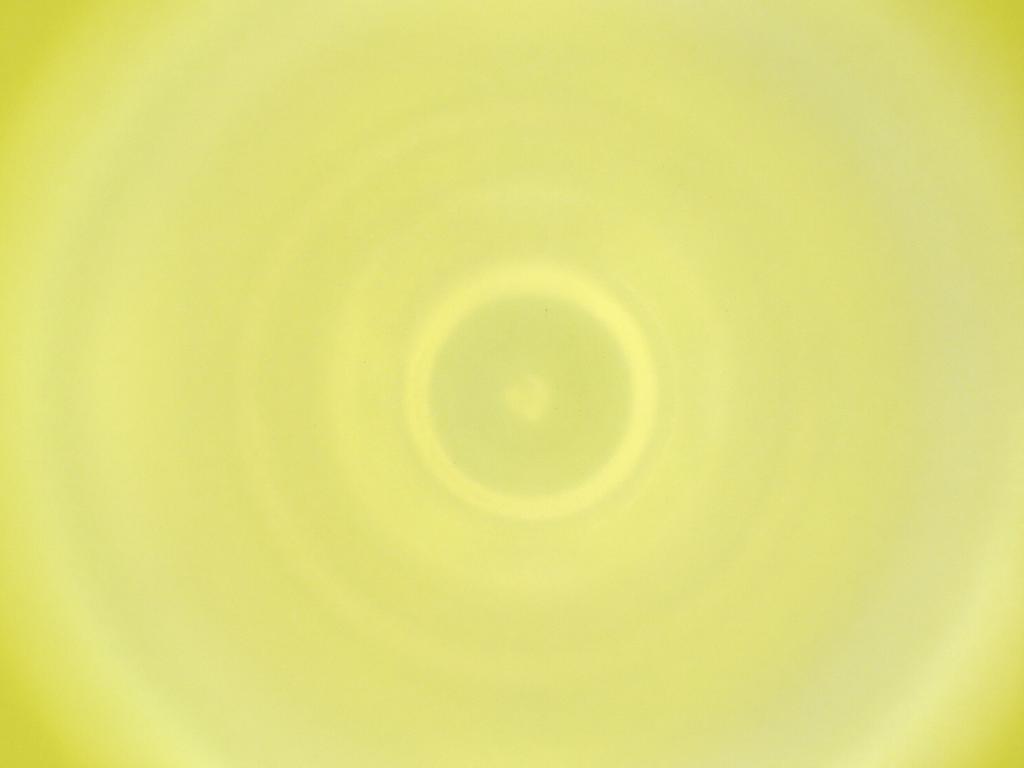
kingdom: Animalia
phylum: Arthropoda
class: Insecta
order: Diptera
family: Cecidomyiidae
